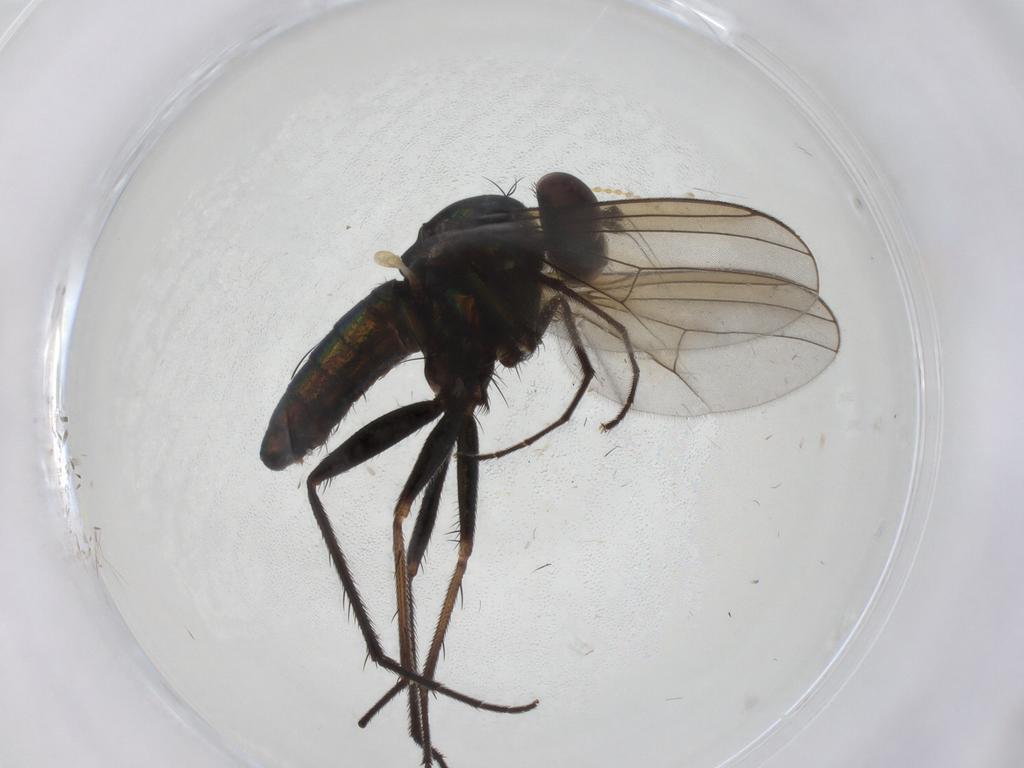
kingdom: Animalia
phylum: Arthropoda
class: Insecta
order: Diptera
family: Dolichopodidae
